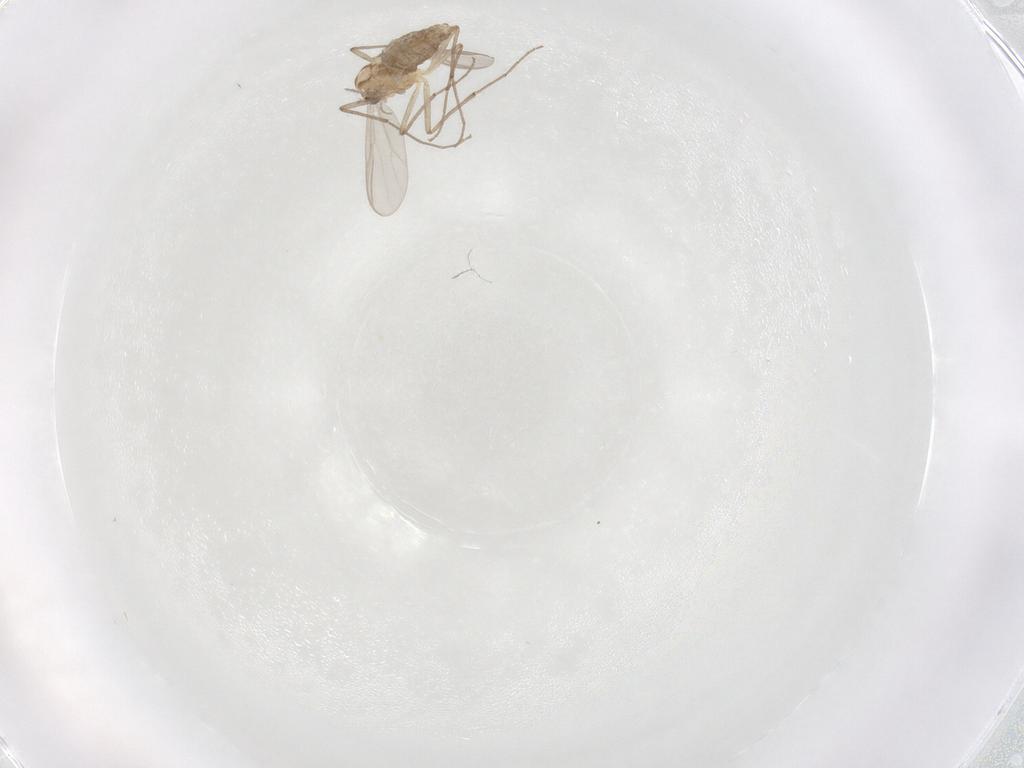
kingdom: Animalia
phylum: Arthropoda
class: Insecta
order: Diptera
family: Chironomidae
